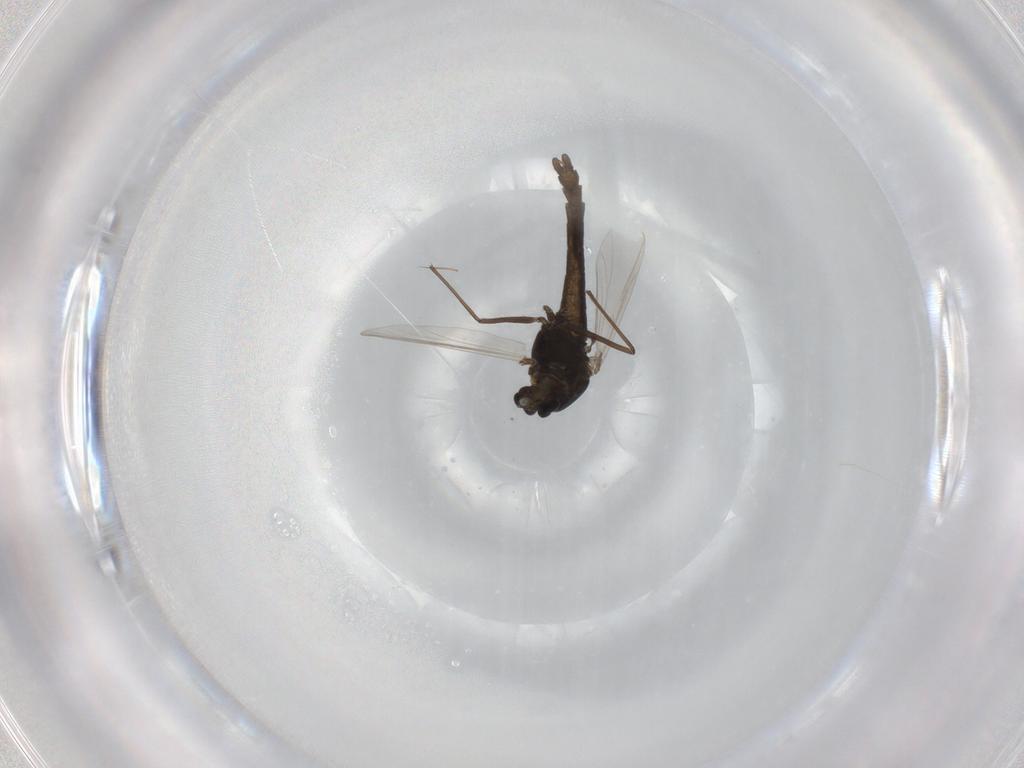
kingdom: Animalia
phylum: Arthropoda
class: Insecta
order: Diptera
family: Chironomidae
